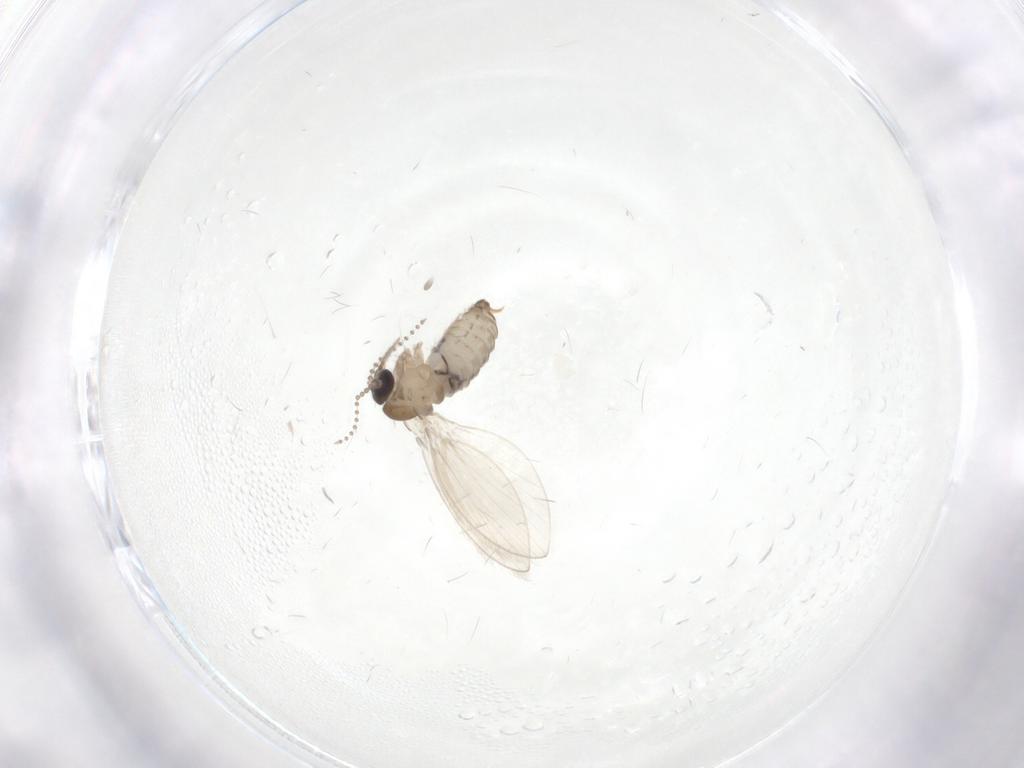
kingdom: Animalia
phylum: Arthropoda
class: Insecta
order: Diptera
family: Psychodidae
